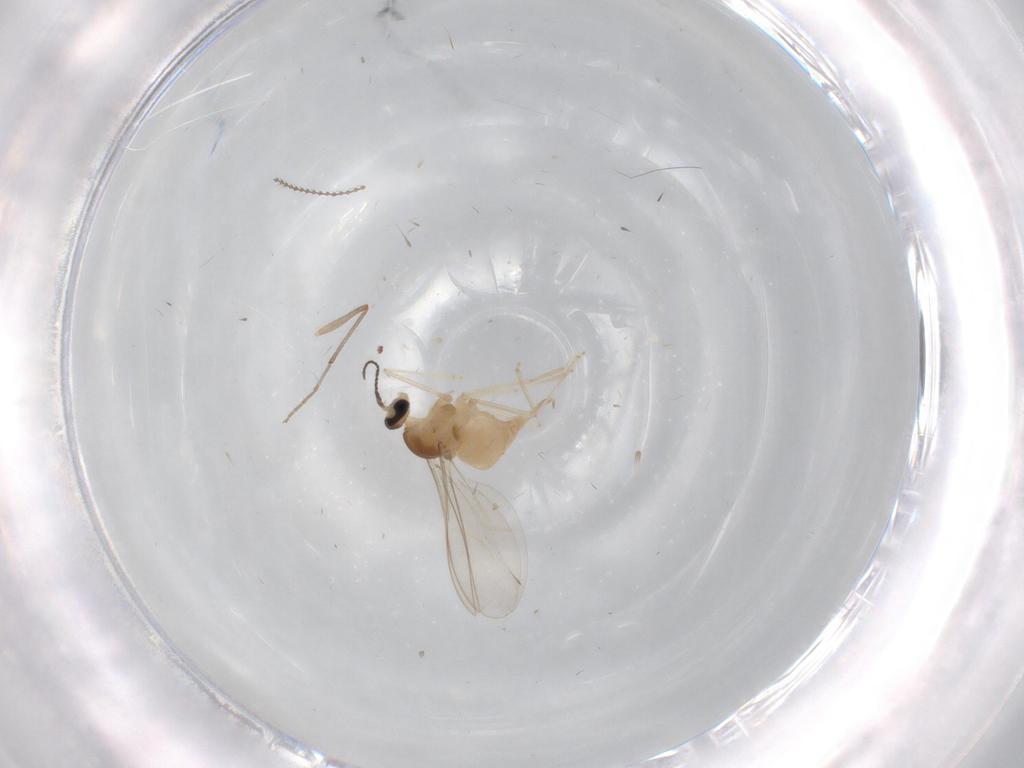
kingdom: Animalia
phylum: Arthropoda
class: Insecta
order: Diptera
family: Cecidomyiidae
